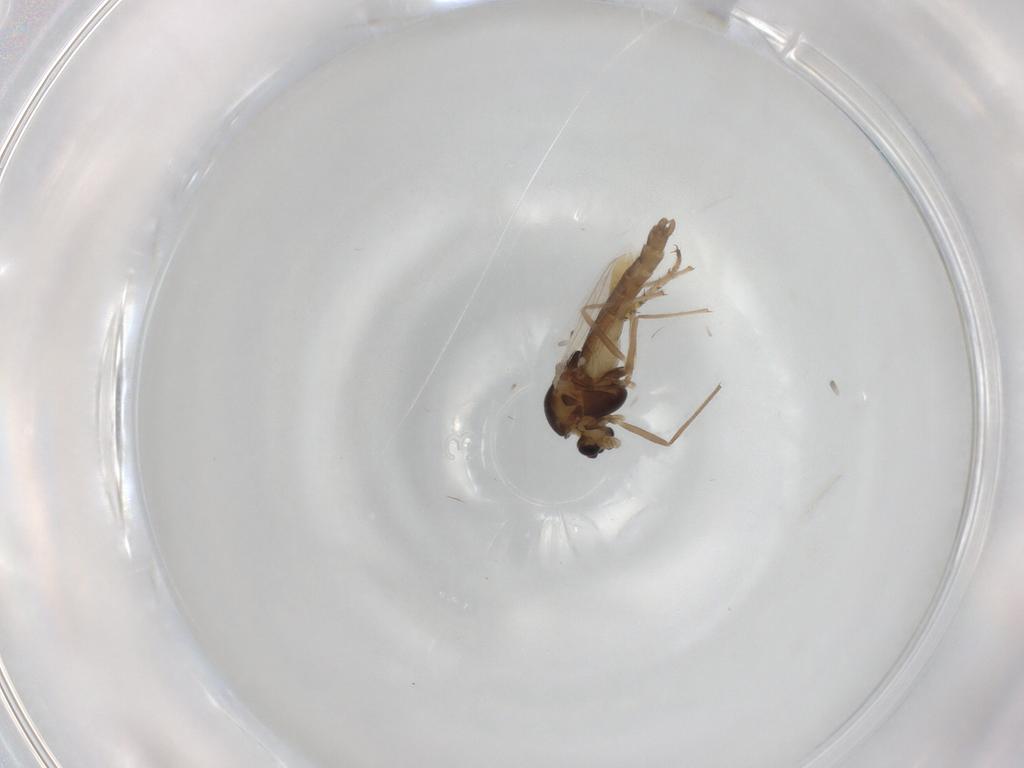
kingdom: Animalia
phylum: Arthropoda
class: Insecta
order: Diptera
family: Chironomidae
